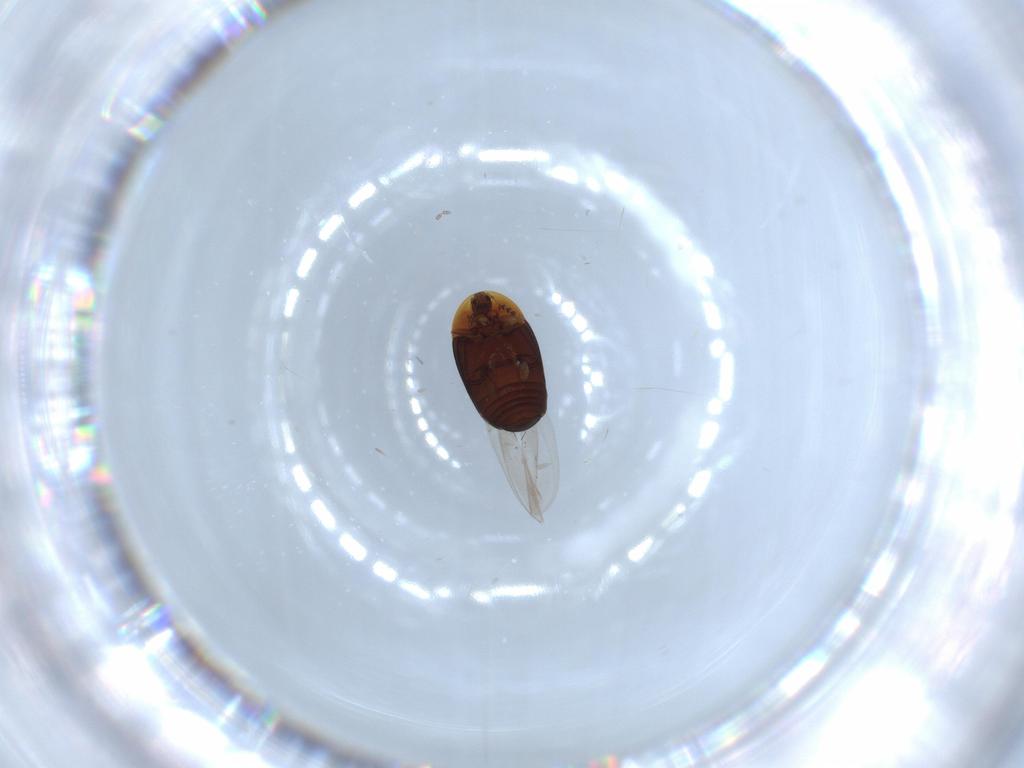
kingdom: Animalia
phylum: Arthropoda
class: Insecta
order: Coleoptera
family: Corylophidae
